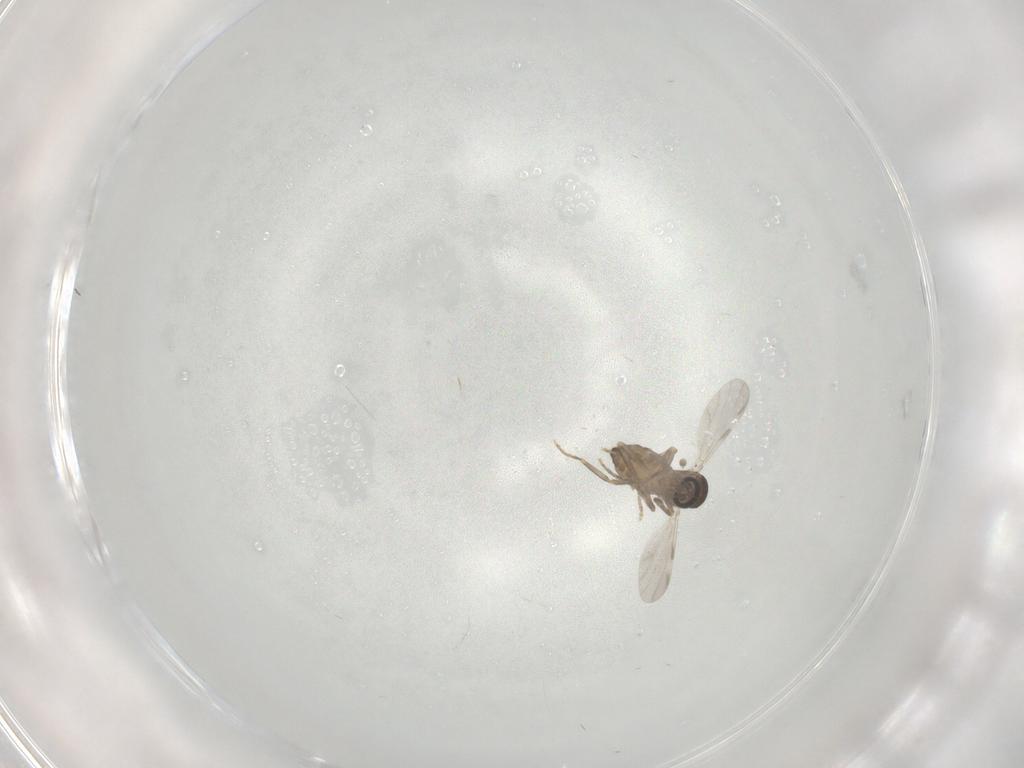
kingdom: Animalia
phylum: Arthropoda
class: Insecta
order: Diptera
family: Ceratopogonidae
